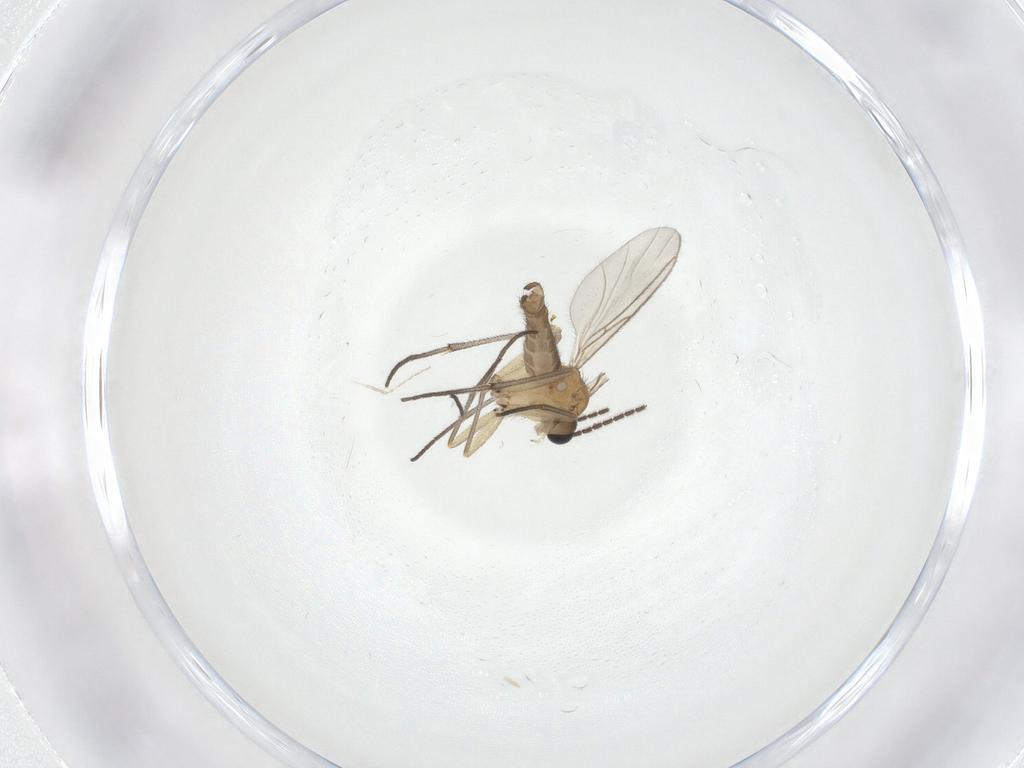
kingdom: Animalia
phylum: Arthropoda
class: Insecta
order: Diptera
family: Sciaridae
